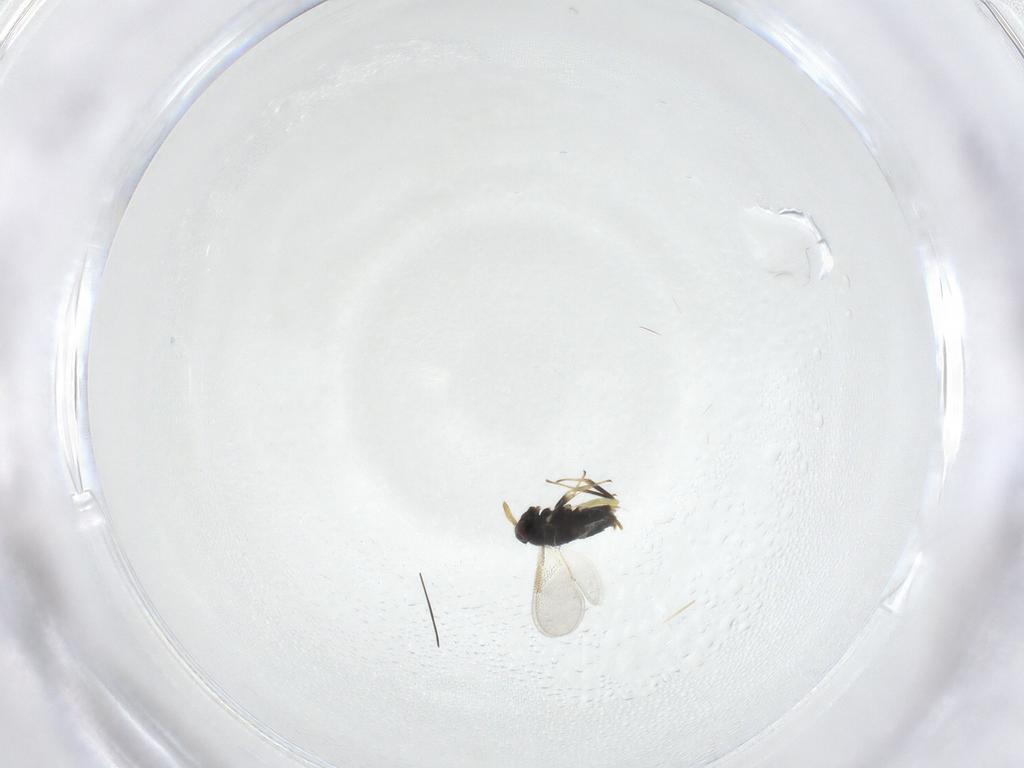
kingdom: Animalia
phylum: Arthropoda
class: Insecta
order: Hymenoptera
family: Aphelinidae
